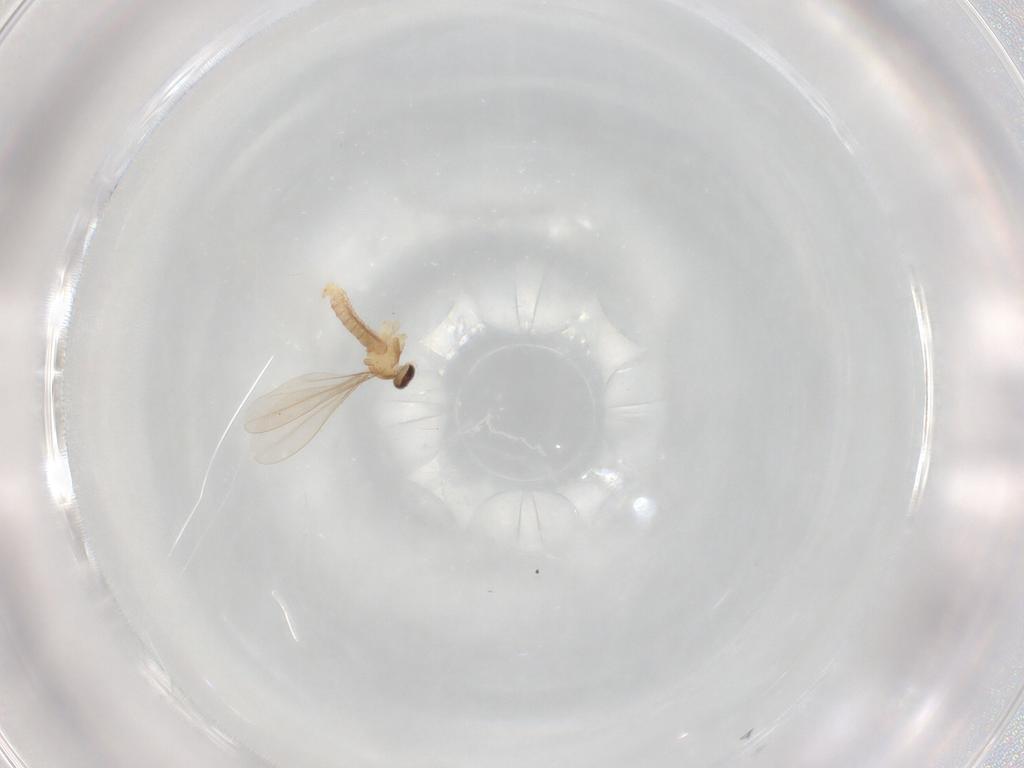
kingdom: Animalia
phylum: Arthropoda
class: Insecta
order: Diptera
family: Cecidomyiidae
